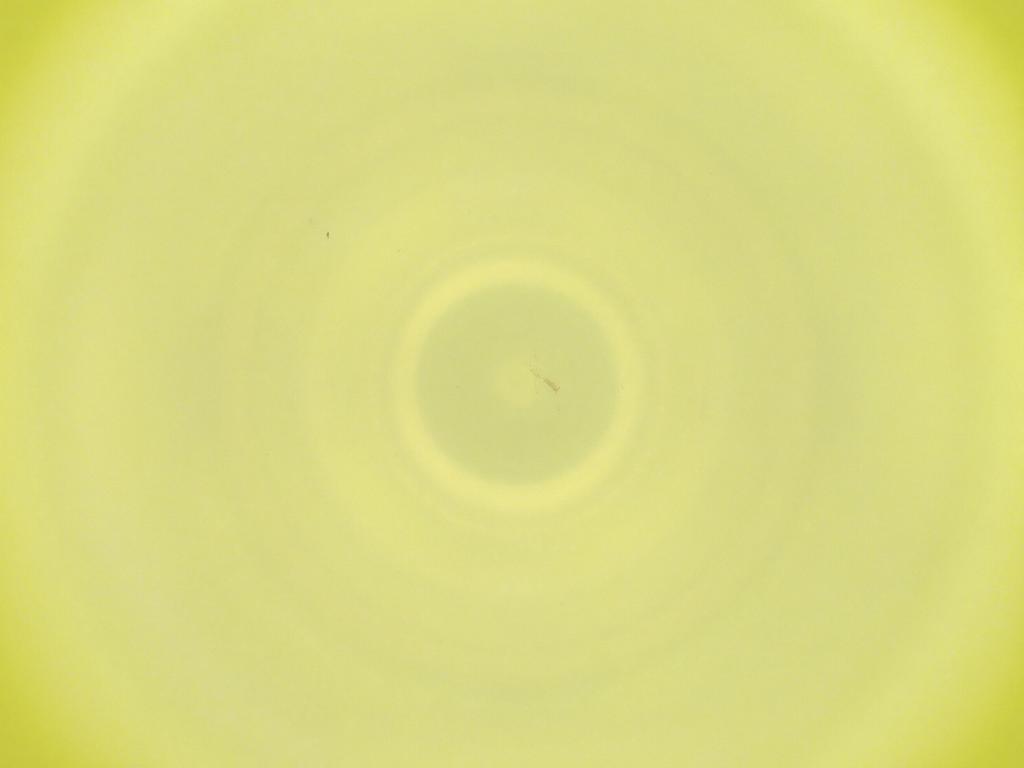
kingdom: Animalia
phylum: Arthropoda
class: Insecta
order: Diptera
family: Cecidomyiidae
